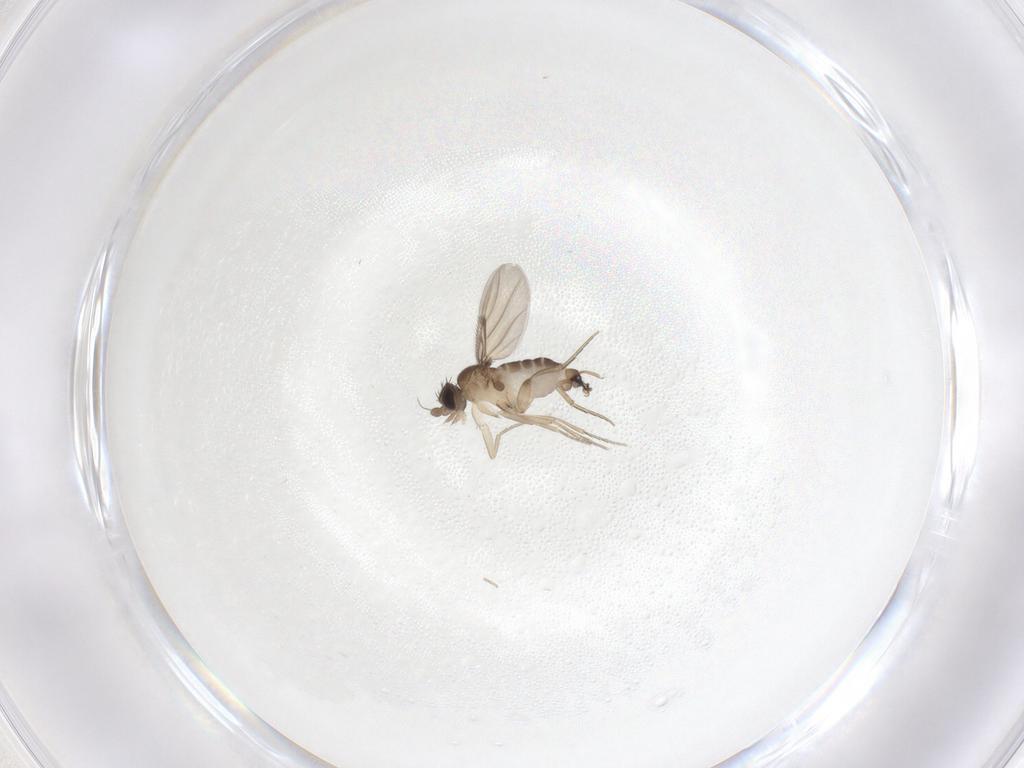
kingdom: Animalia
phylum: Arthropoda
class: Insecta
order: Diptera
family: Phoridae
